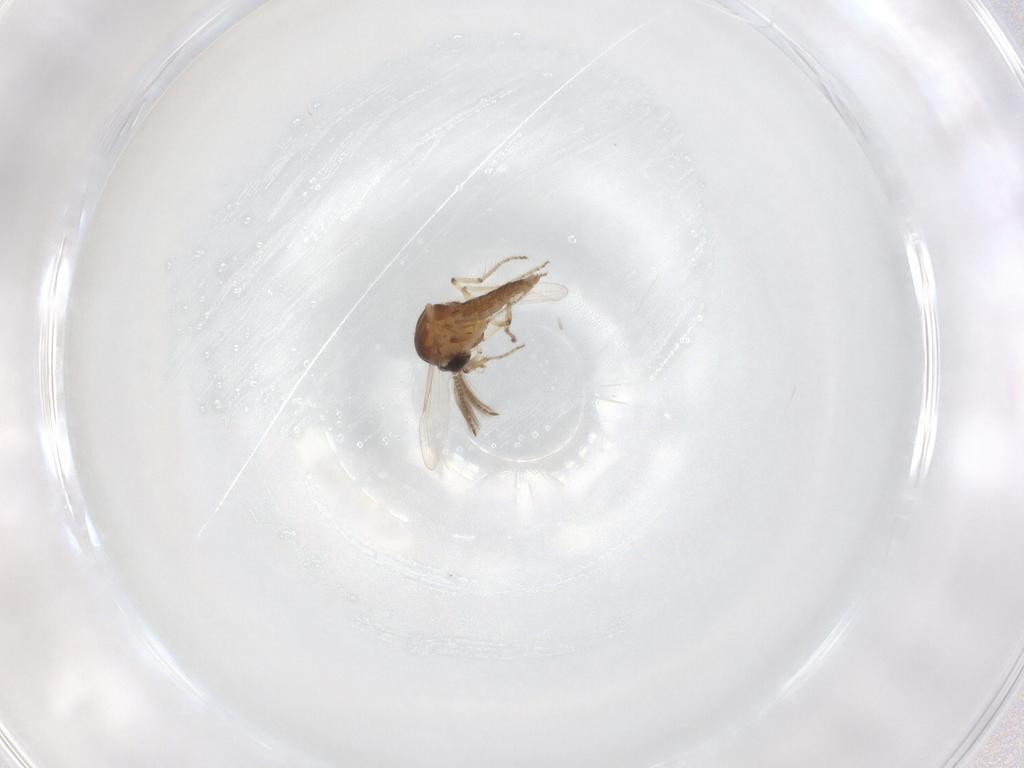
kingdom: Animalia
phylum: Arthropoda
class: Insecta
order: Diptera
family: Ceratopogonidae
